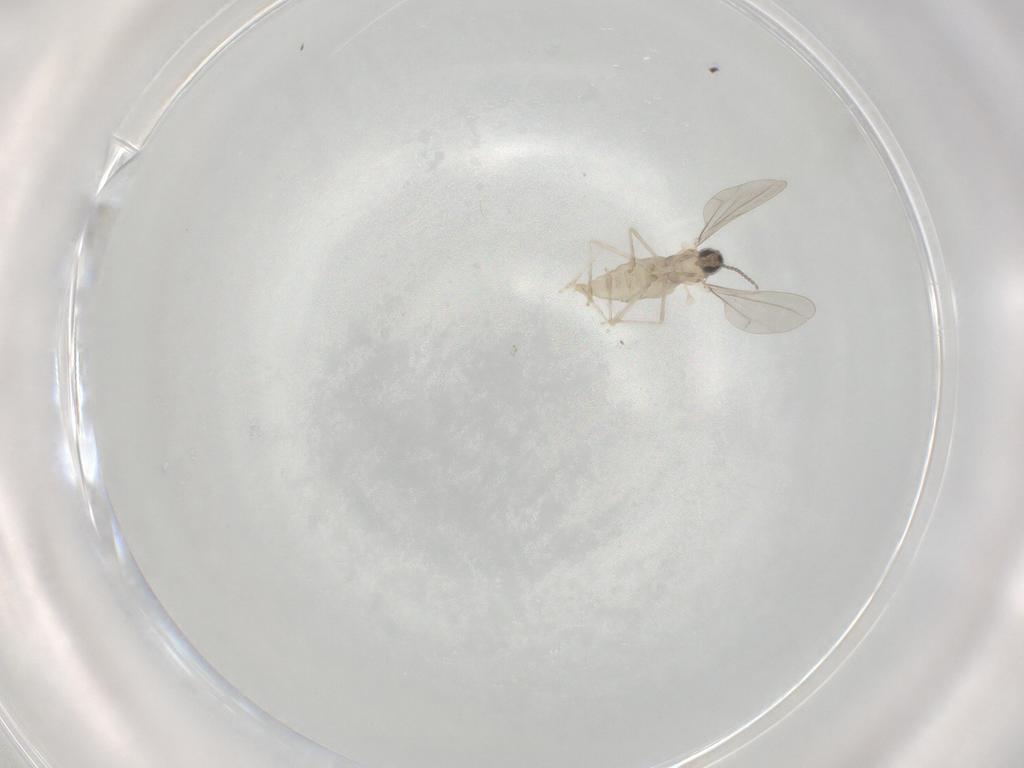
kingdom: Animalia
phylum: Arthropoda
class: Insecta
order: Diptera
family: Cecidomyiidae
